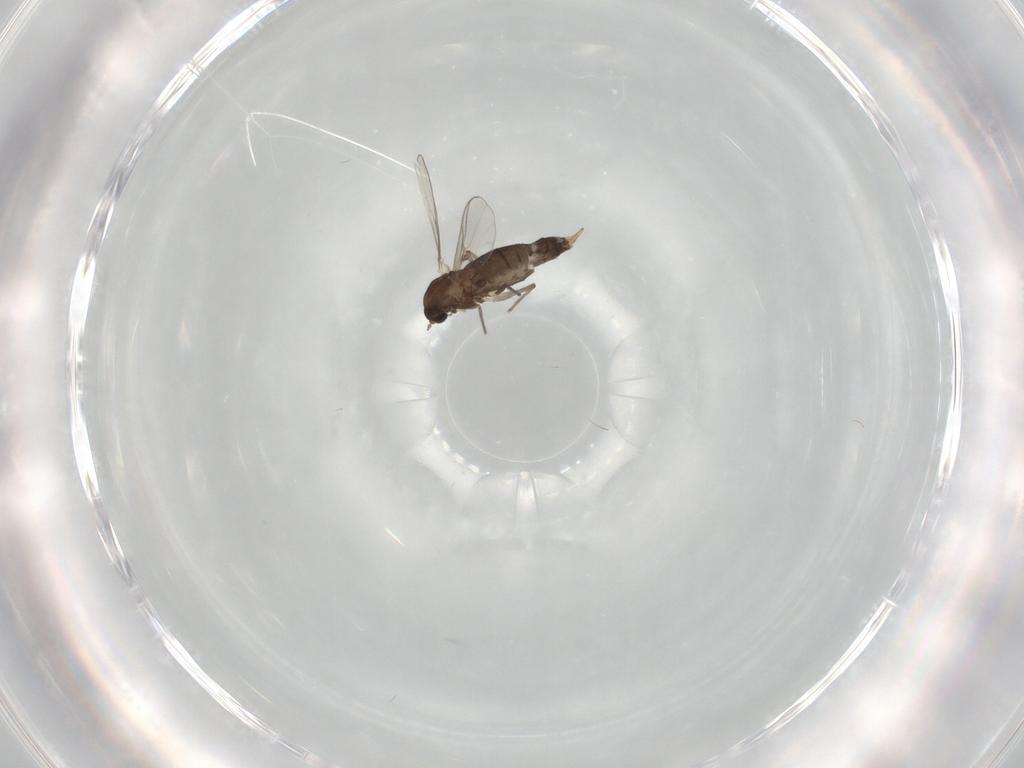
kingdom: Animalia
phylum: Arthropoda
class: Insecta
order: Diptera
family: Chironomidae
